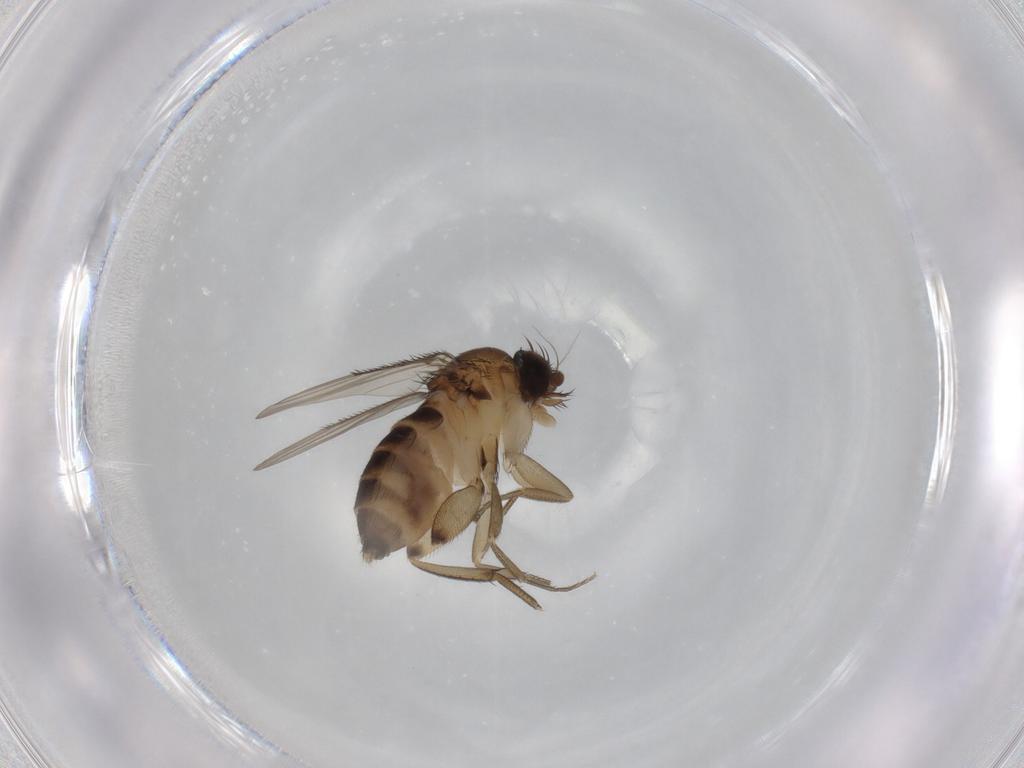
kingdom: Animalia
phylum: Arthropoda
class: Insecta
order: Diptera
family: Phoridae
